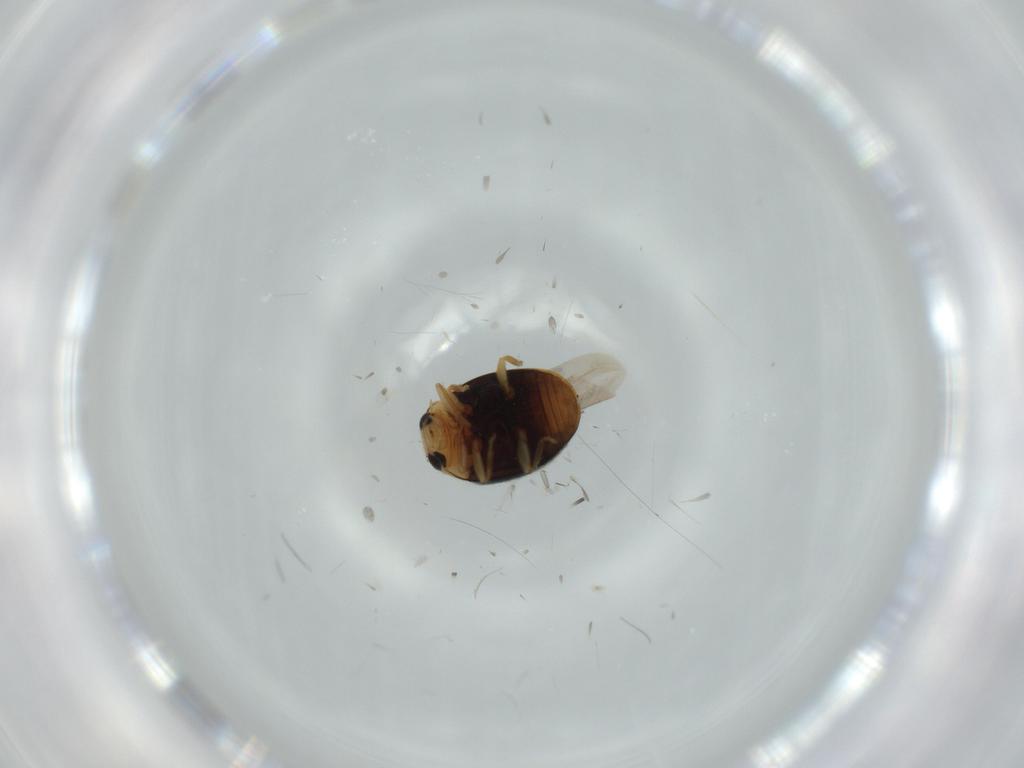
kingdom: Animalia
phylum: Arthropoda
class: Insecta
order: Coleoptera
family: Coccinellidae
